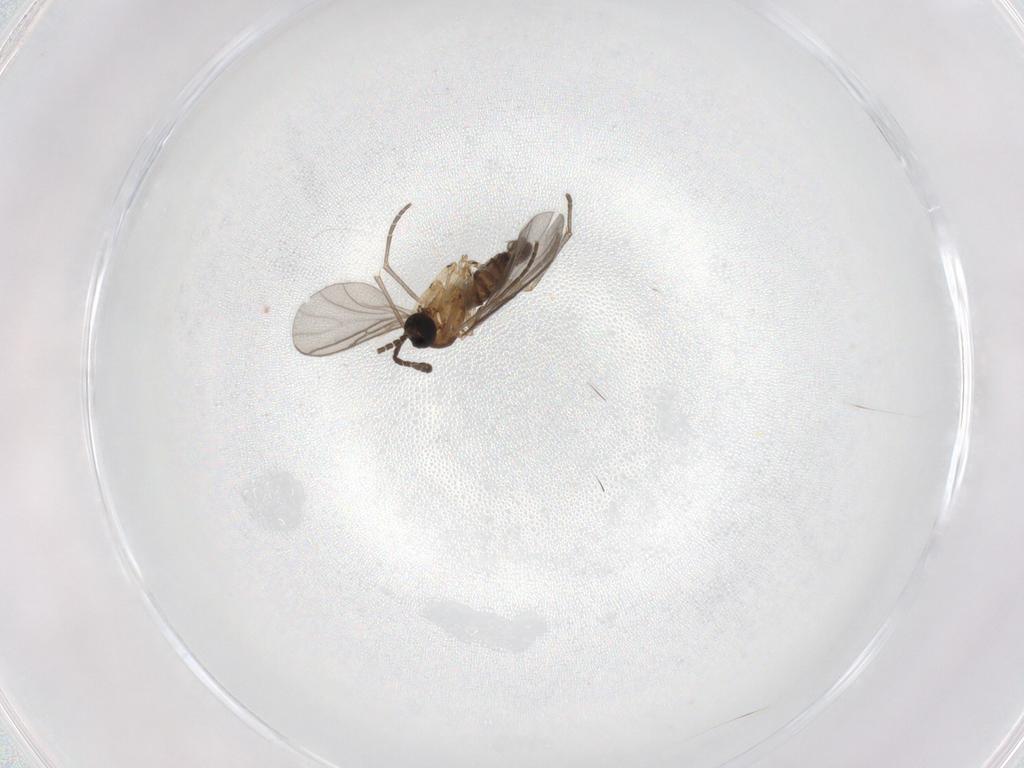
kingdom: Animalia
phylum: Arthropoda
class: Insecta
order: Diptera
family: Sciaridae
